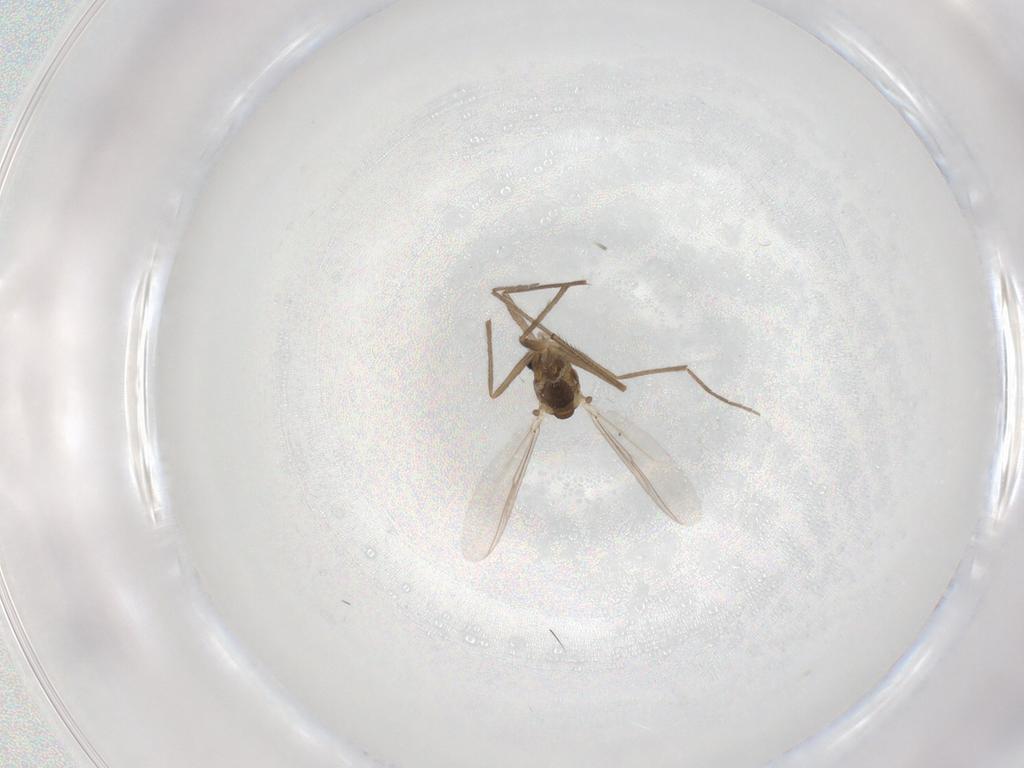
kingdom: Animalia
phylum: Arthropoda
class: Insecta
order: Diptera
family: Chironomidae
